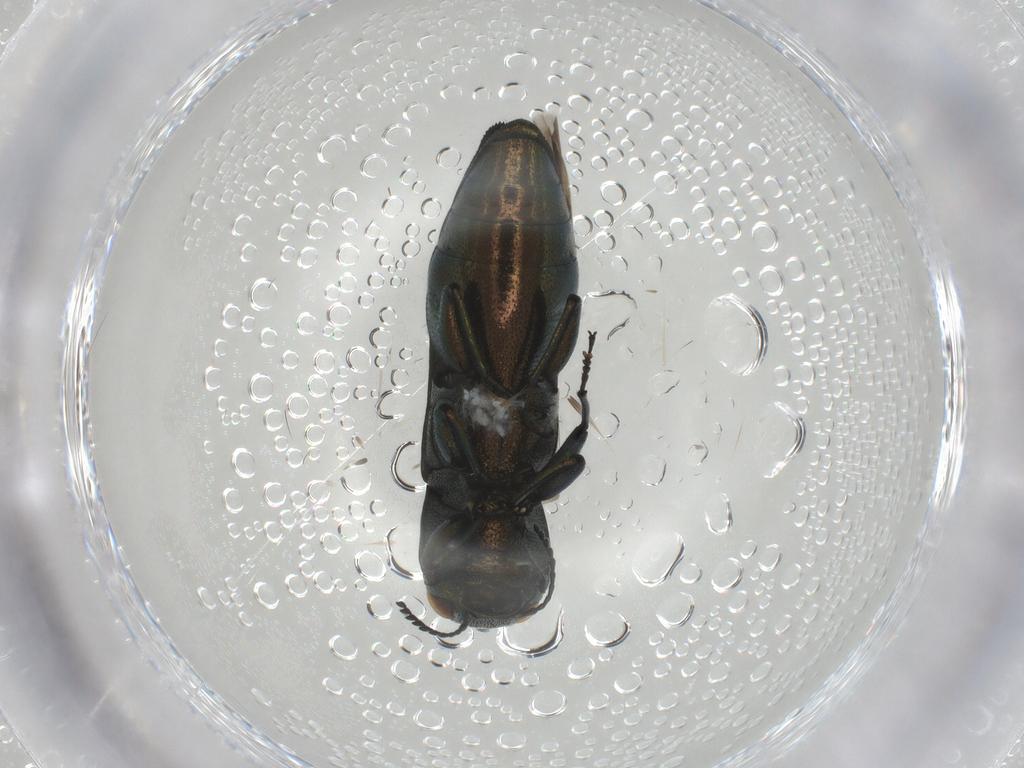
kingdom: Animalia
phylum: Arthropoda
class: Insecta
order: Coleoptera
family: Buprestidae
